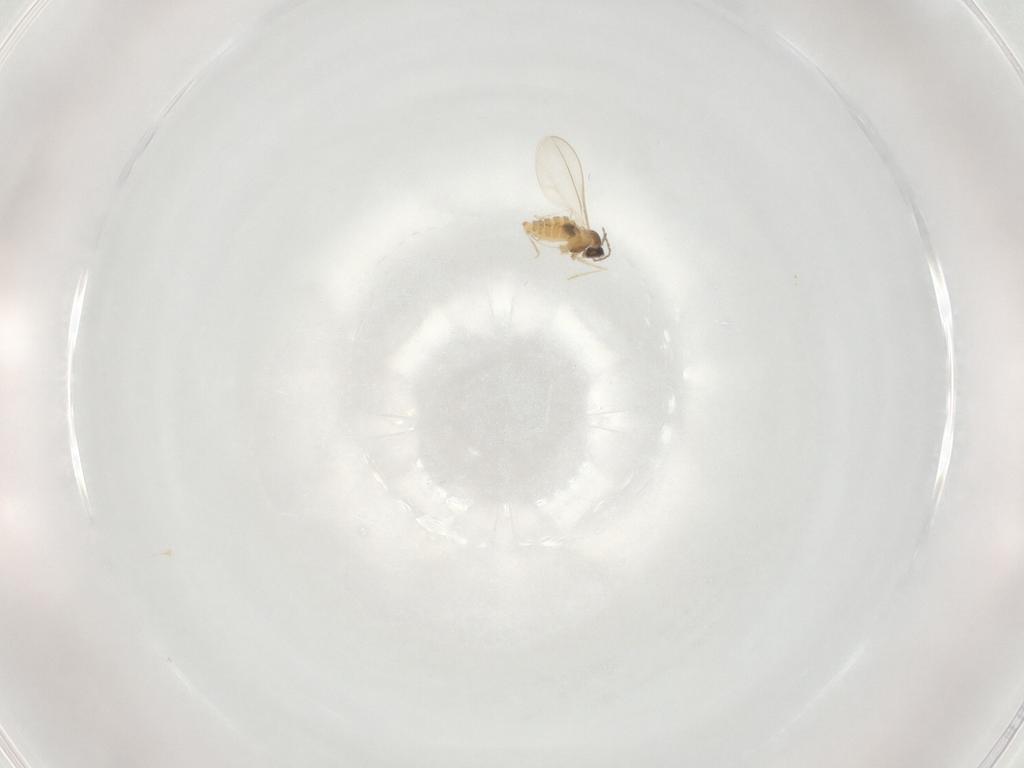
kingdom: Animalia
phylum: Arthropoda
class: Insecta
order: Diptera
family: Cecidomyiidae
